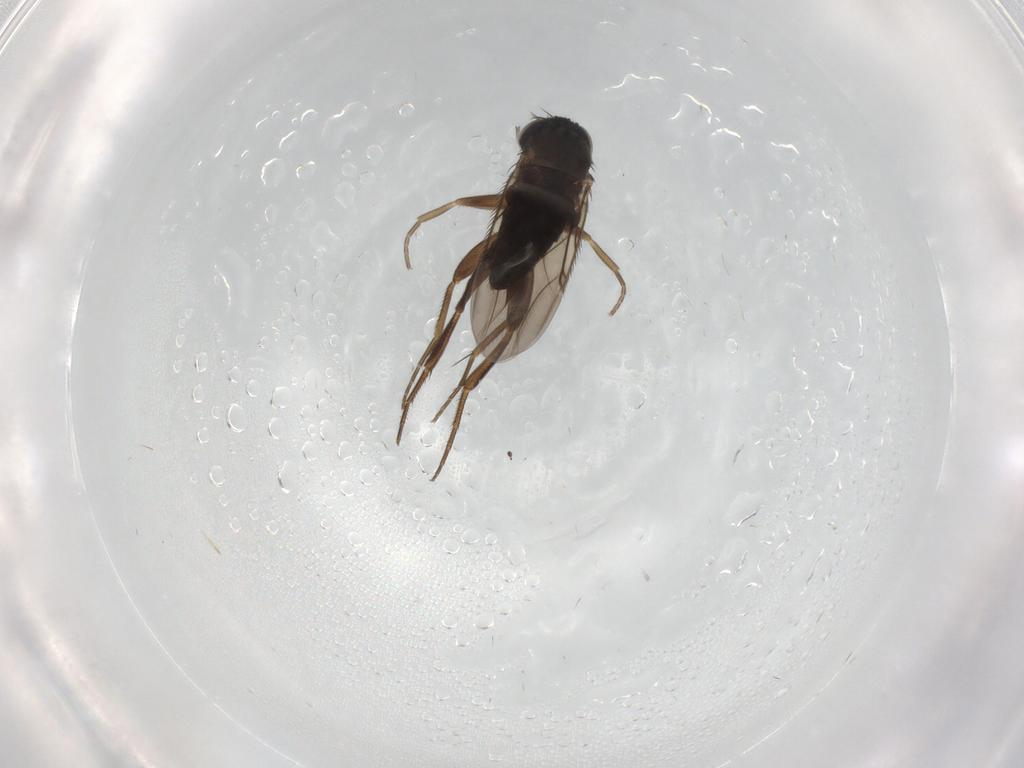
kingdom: Animalia
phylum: Arthropoda
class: Insecta
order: Diptera
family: Phoridae
